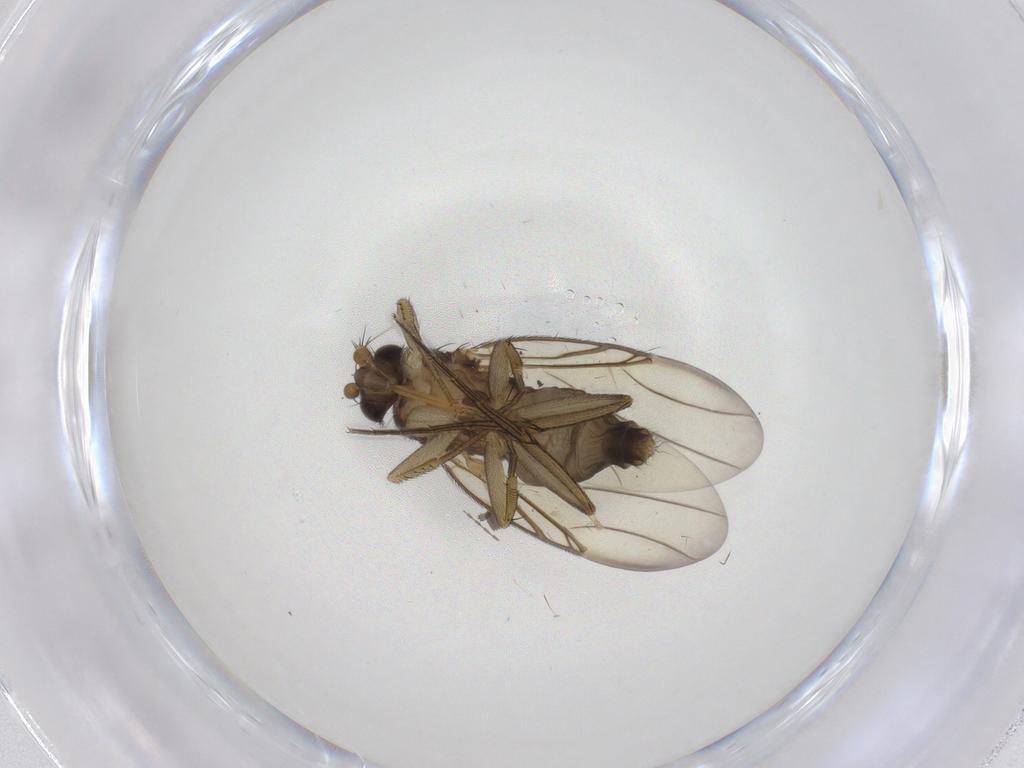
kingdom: Animalia
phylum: Arthropoda
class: Insecta
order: Diptera
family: Phoridae
